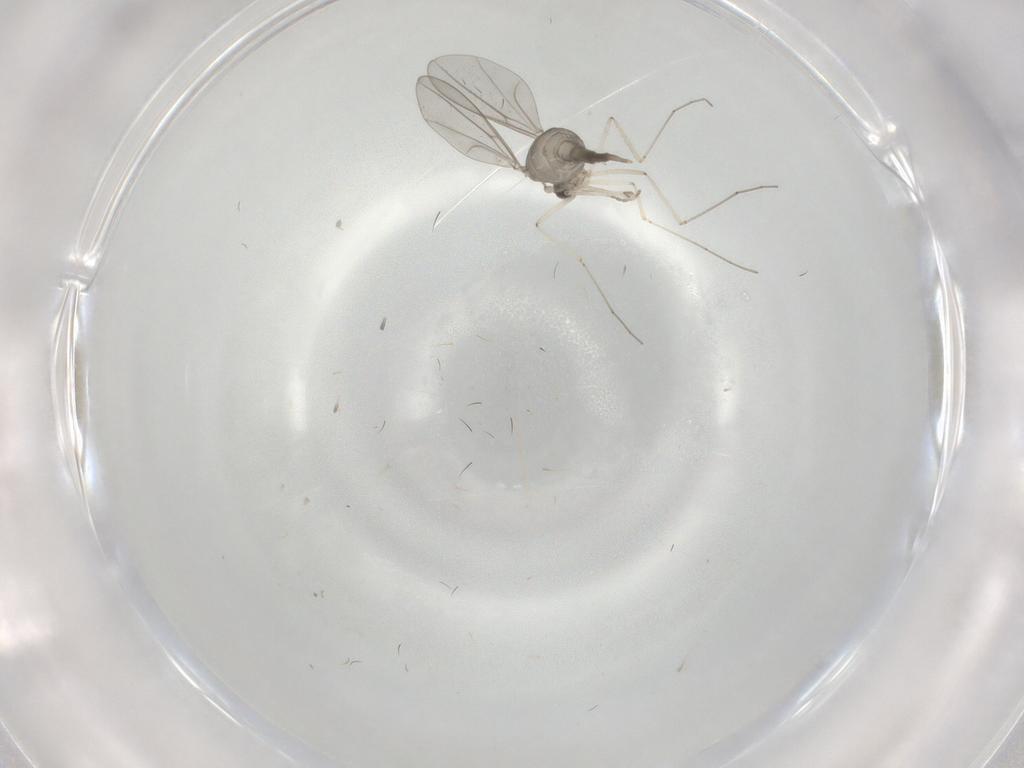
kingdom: Animalia
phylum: Arthropoda
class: Insecta
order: Diptera
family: Cecidomyiidae
